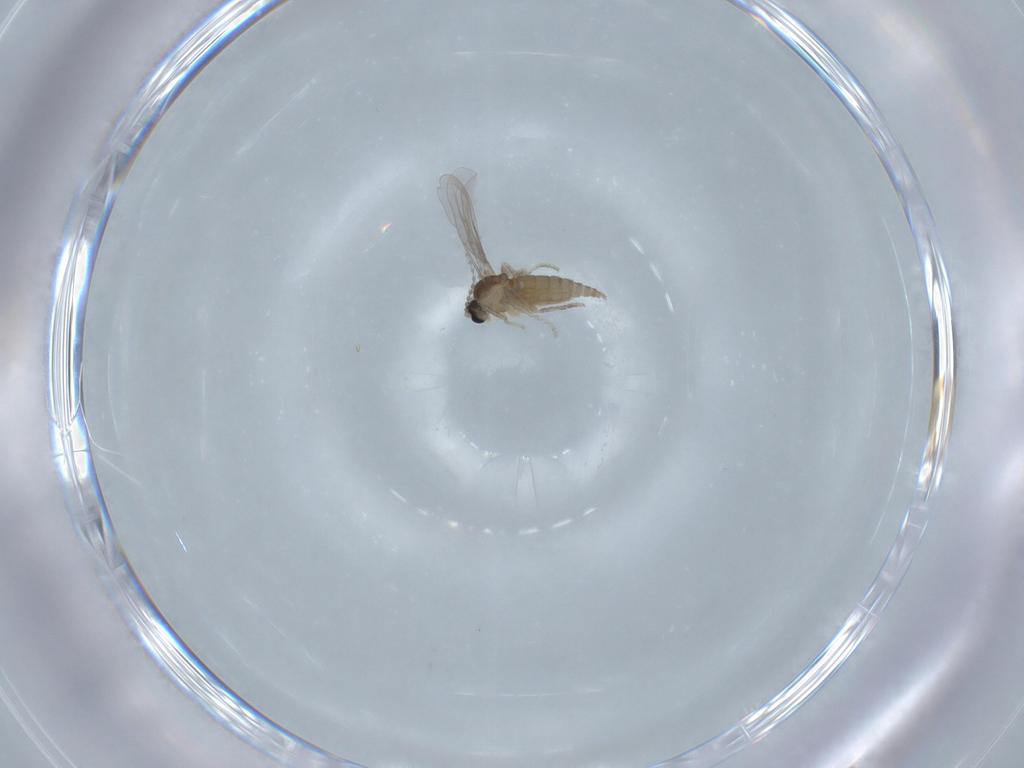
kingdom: Animalia
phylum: Arthropoda
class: Insecta
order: Diptera
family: Cecidomyiidae
